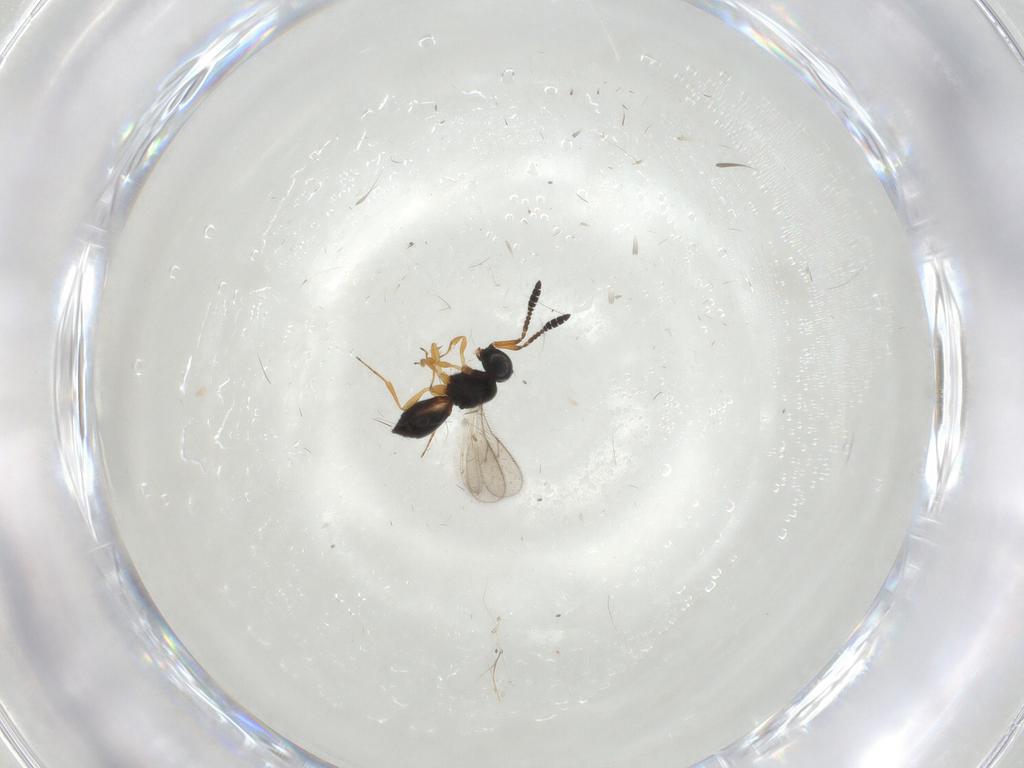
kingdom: Animalia
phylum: Arthropoda
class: Insecta
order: Hymenoptera
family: Scelionidae
